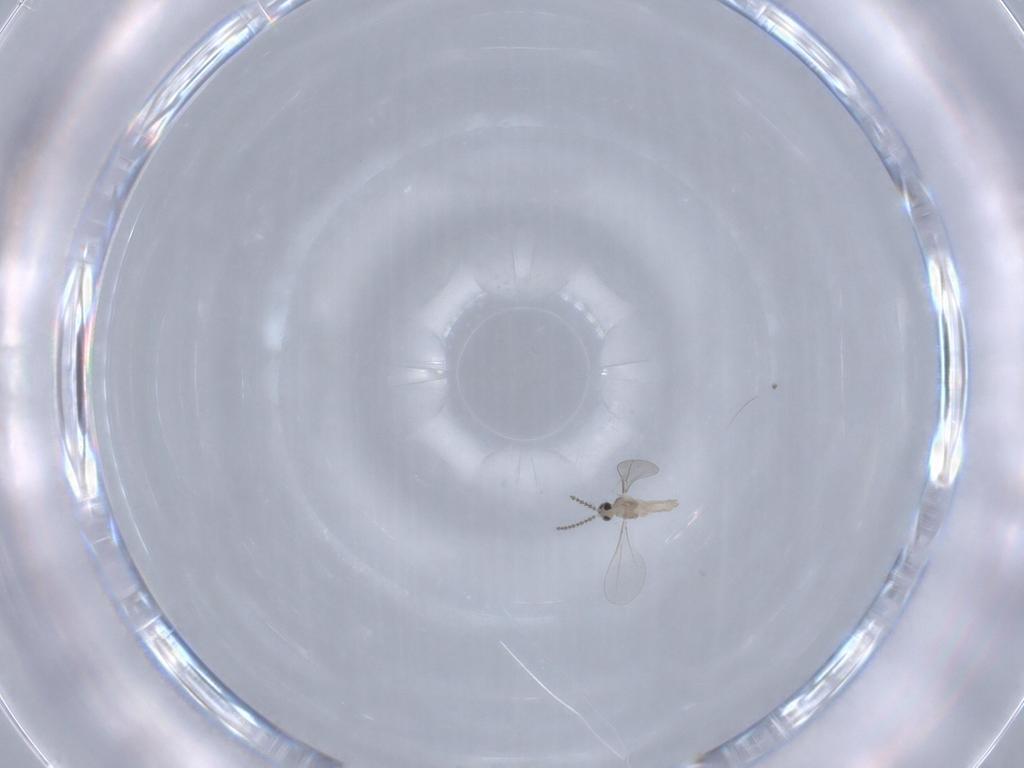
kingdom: Animalia
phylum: Arthropoda
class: Insecta
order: Diptera
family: Cecidomyiidae
